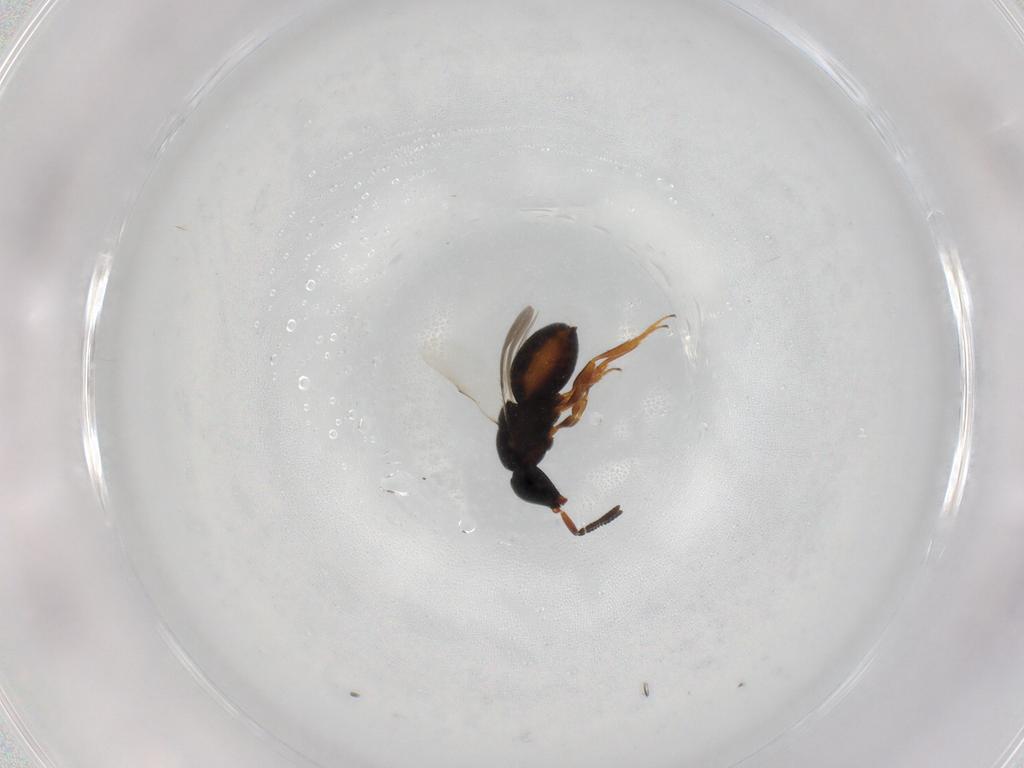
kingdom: Animalia
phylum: Arthropoda
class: Insecta
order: Hymenoptera
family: Scelionidae
